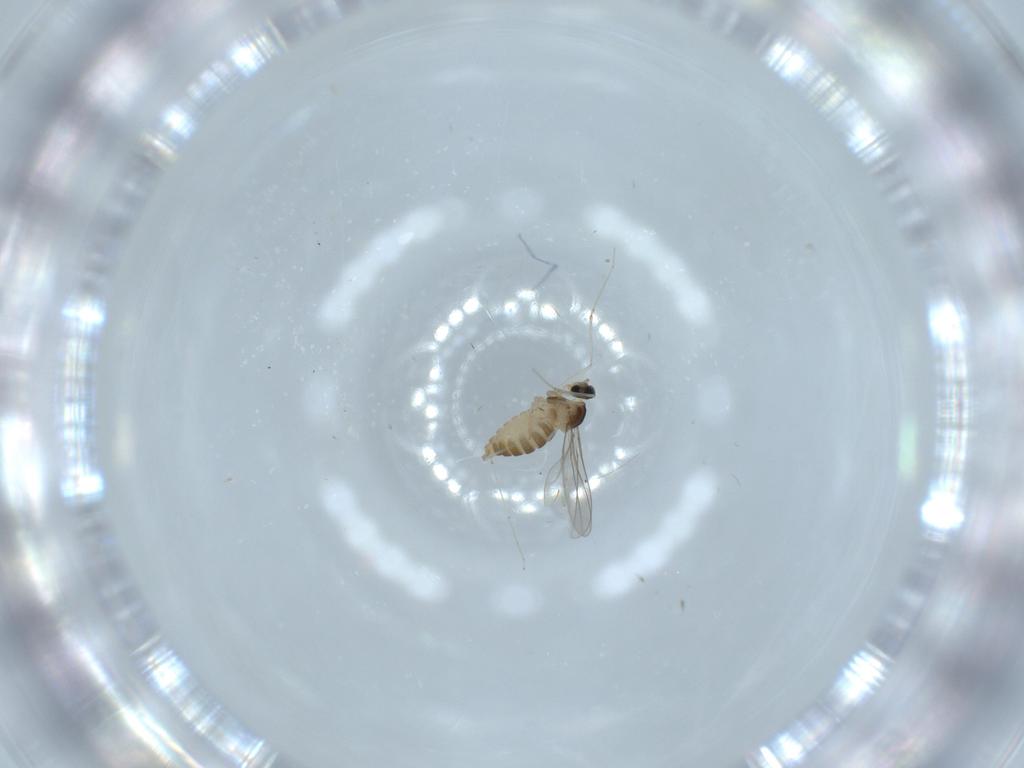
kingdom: Animalia
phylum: Arthropoda
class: Insecta
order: Diptera
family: Cecidomyiidae
